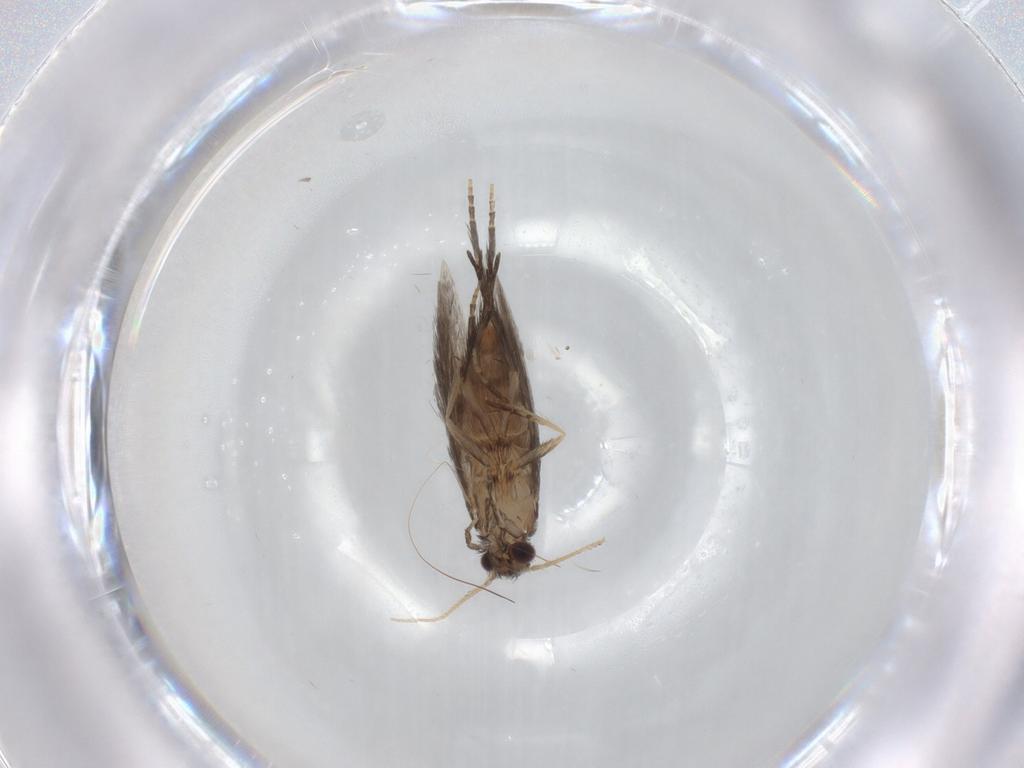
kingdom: Animalia
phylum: Arthropoda
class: Insecta
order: Trichoptera
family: Hydroptilidae
